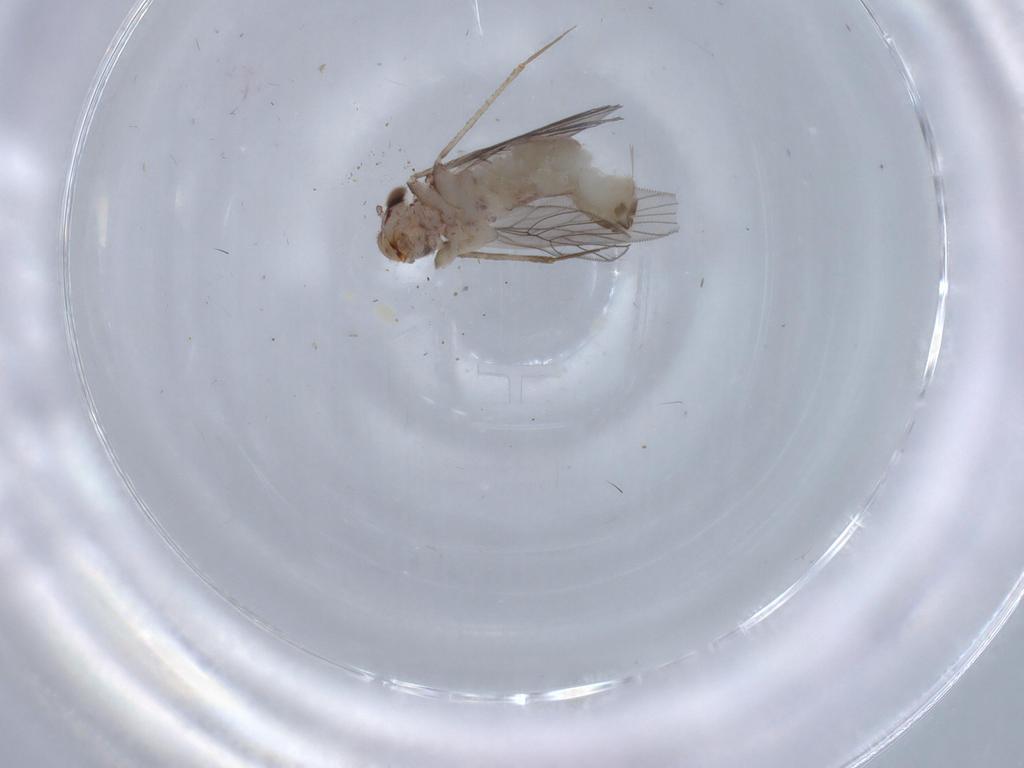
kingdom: Animalia
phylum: Arthropoda
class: Insecta
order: Psocodea
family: Lepidopsocidae
